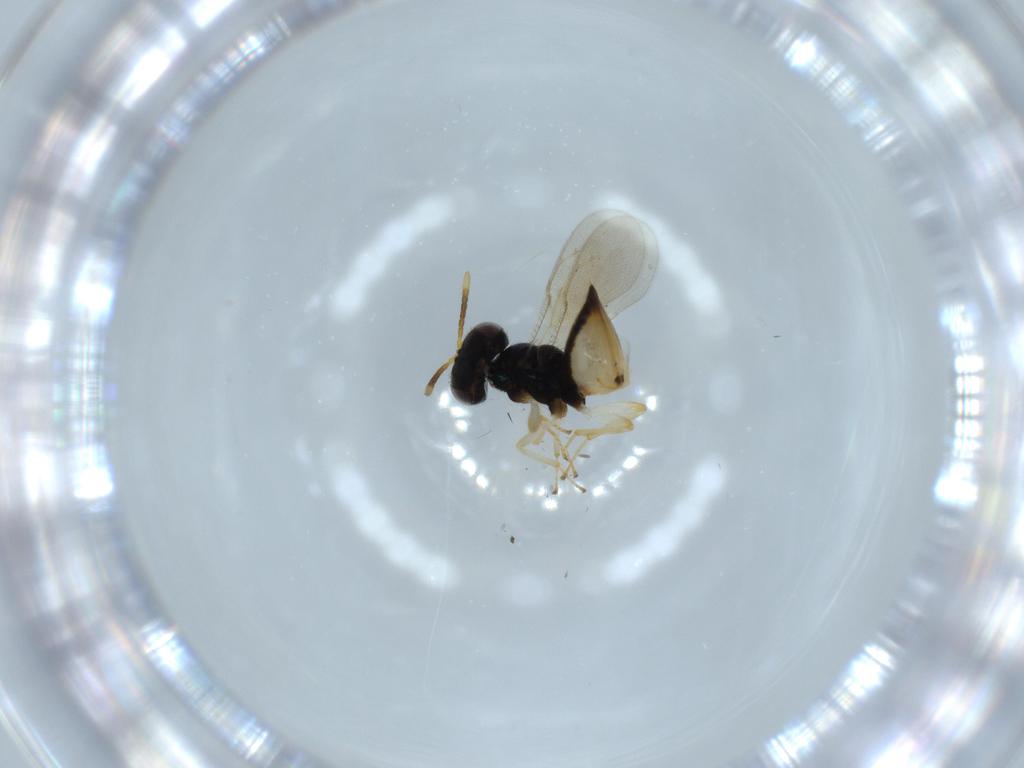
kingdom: Animalia
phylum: Arthropoda
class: Insecta
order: Hymenoptera
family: Pteromalidae
